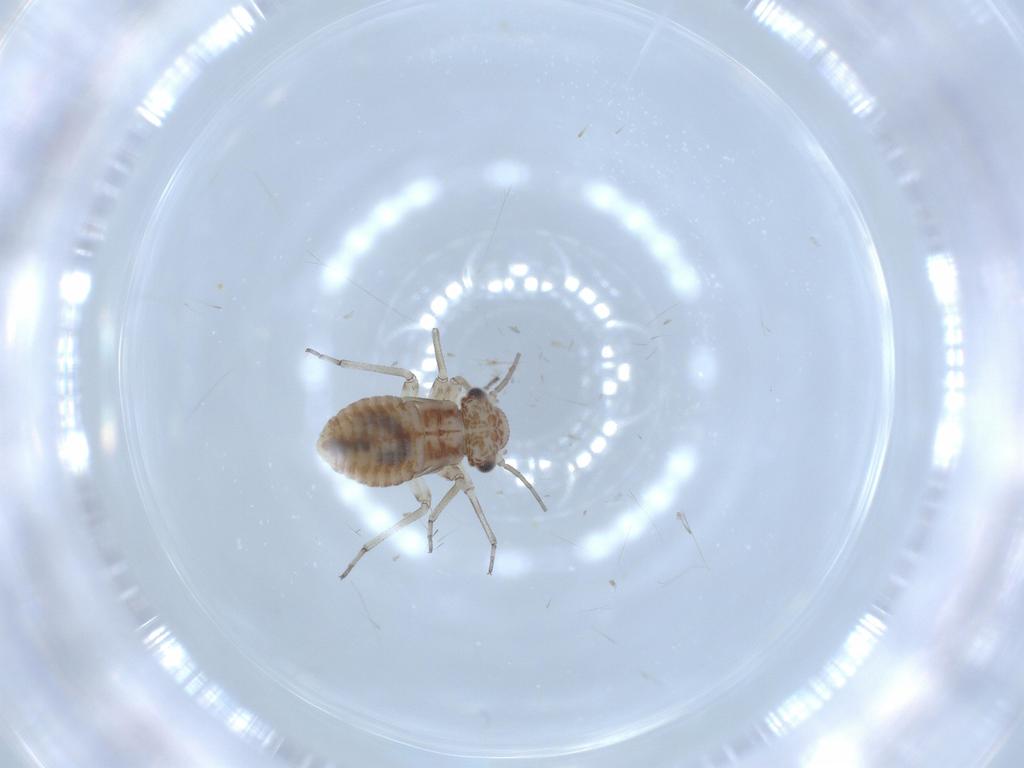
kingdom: Animalia
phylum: Arthropoda
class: Insecta
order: Psocodea
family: Psocidae
